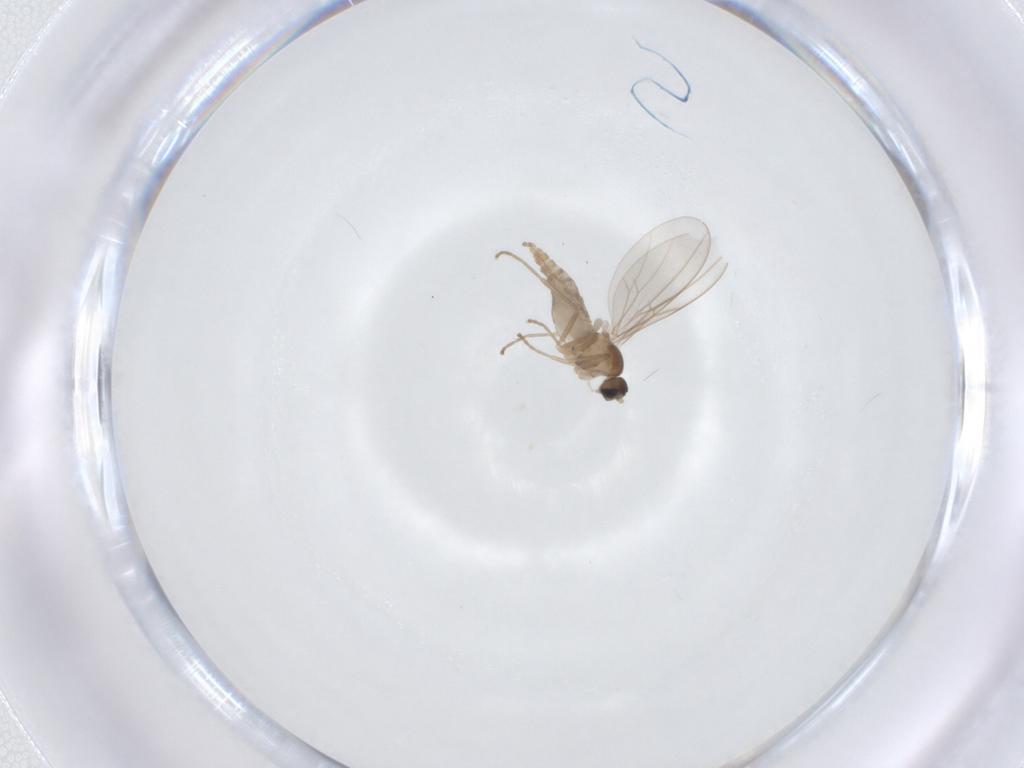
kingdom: Animalia
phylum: Arthropoda
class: Insecta
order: Diptera
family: Cecidomyiidae
